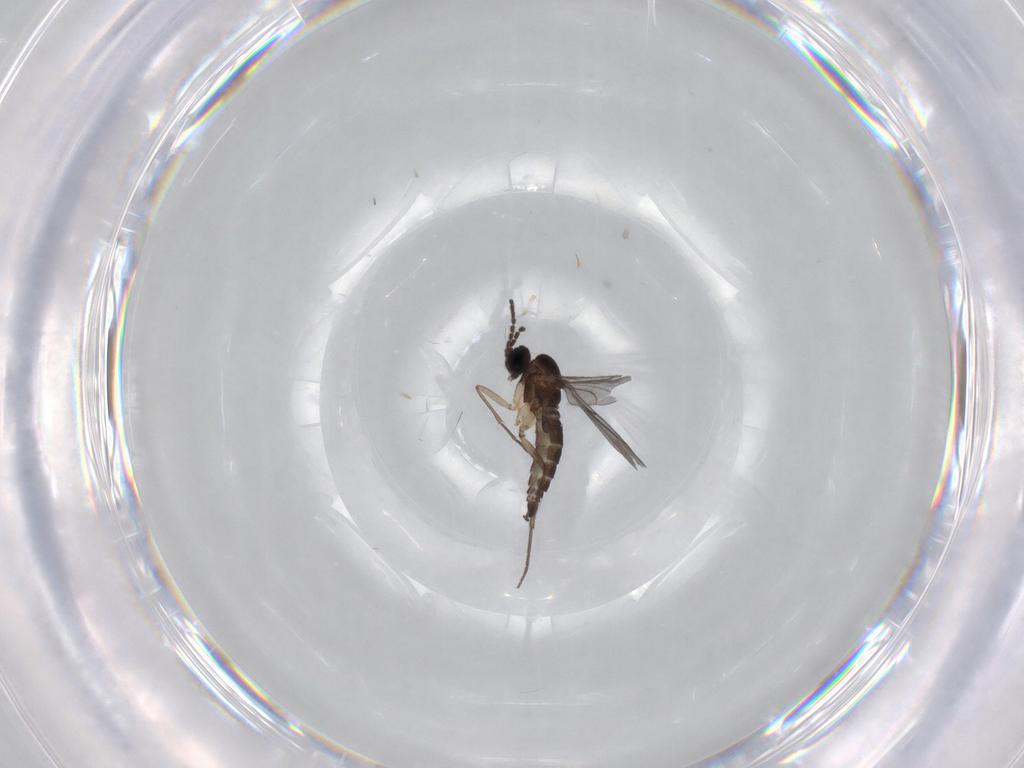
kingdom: Animalia
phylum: Arthropoda
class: Insecta
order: Diptera
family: Sciaridae
